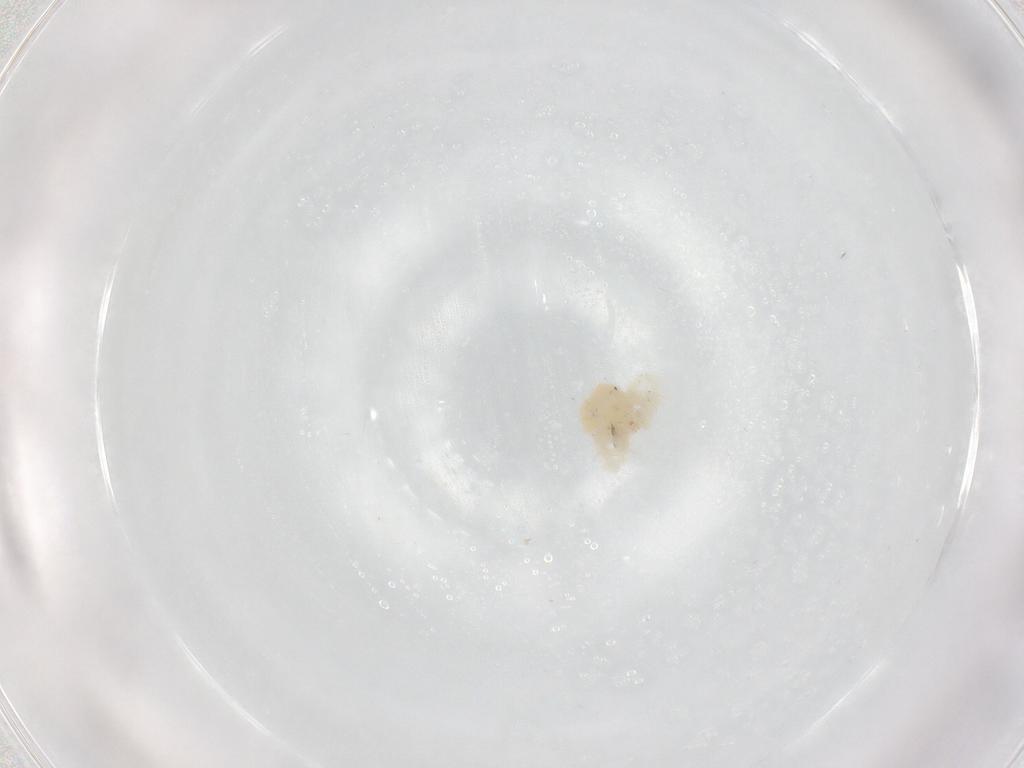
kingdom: Animalia
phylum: Arthropoda
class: Arachnida
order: Trombidiformes
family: Anystidae
